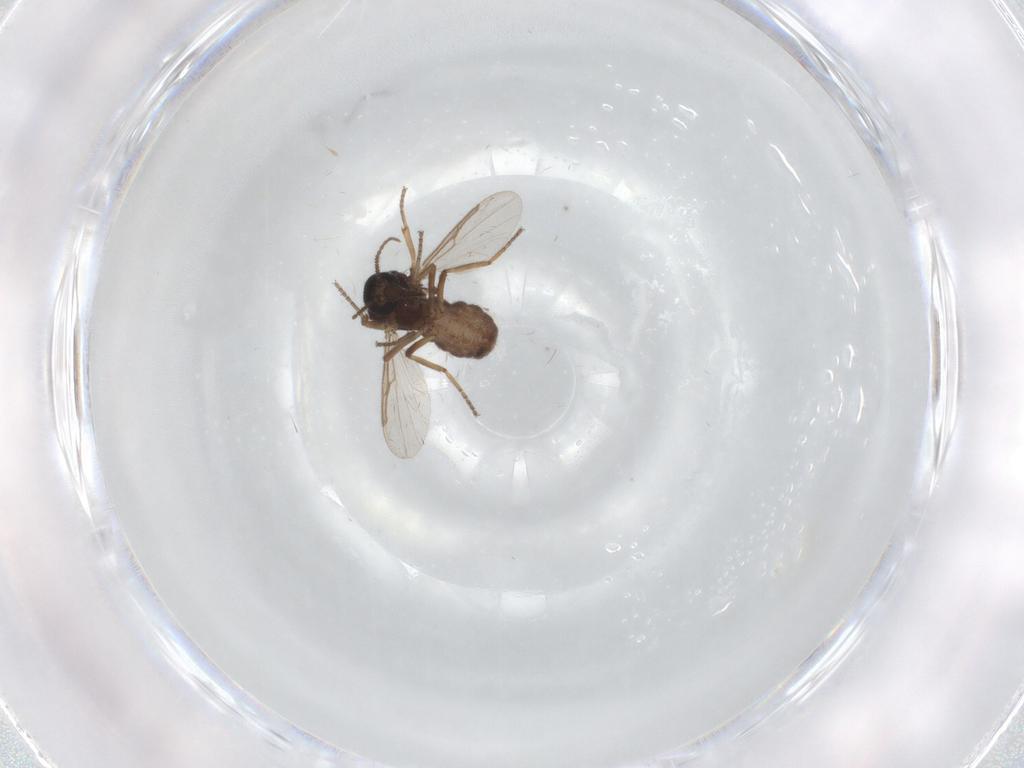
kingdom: Animalia
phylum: Arthropoda
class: Insecta
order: Diptera
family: Ceratopogonidae
